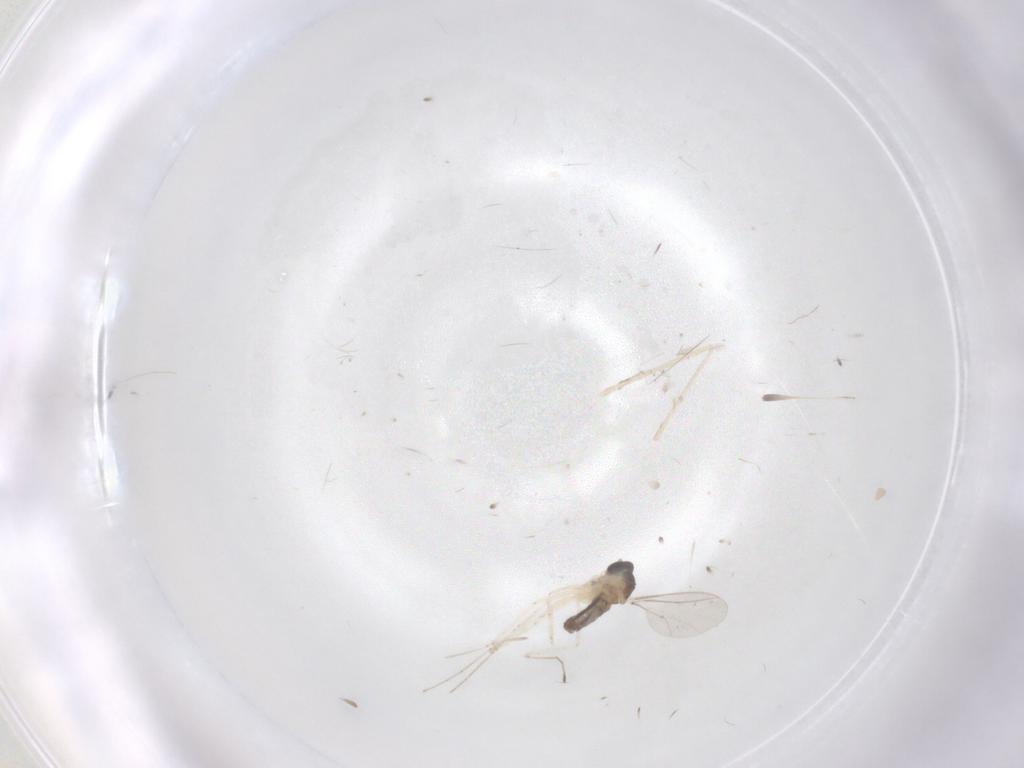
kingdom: Animalia
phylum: Arthropoda
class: Insecta
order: Diptera
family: Cecidomyiidae
